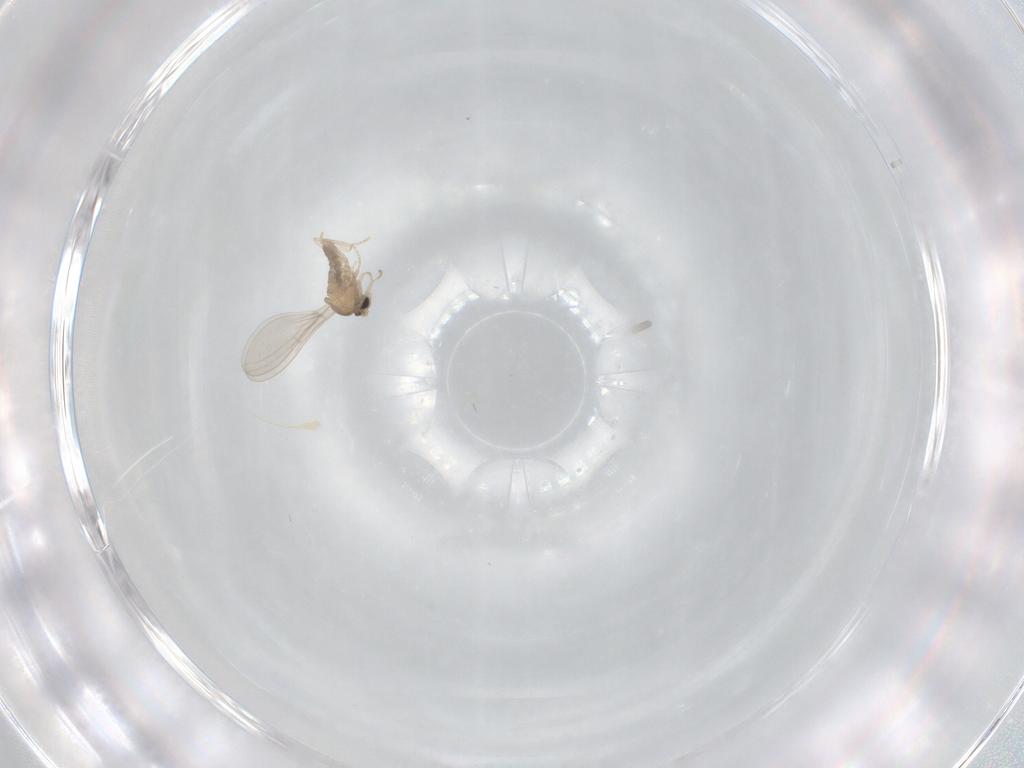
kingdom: Animalia
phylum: Arthropoda
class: Insecta
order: Diptera
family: Cecidomyiidae
